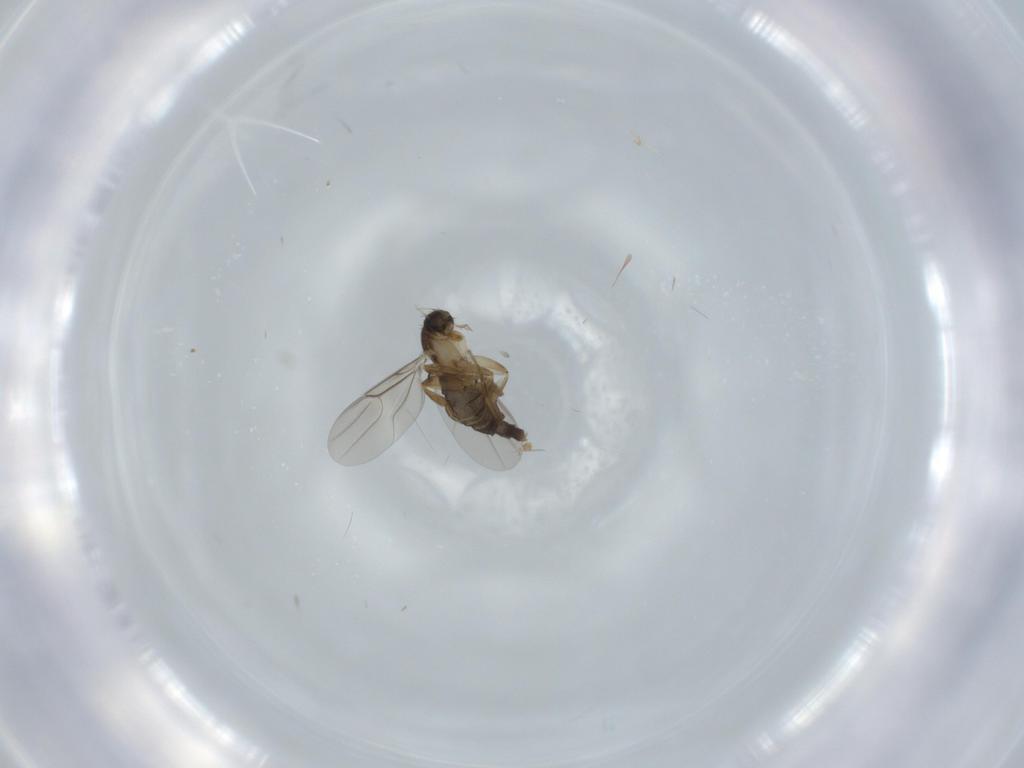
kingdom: Animalia
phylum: Arthropoda
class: Insecta
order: Diptera
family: Phoridae
